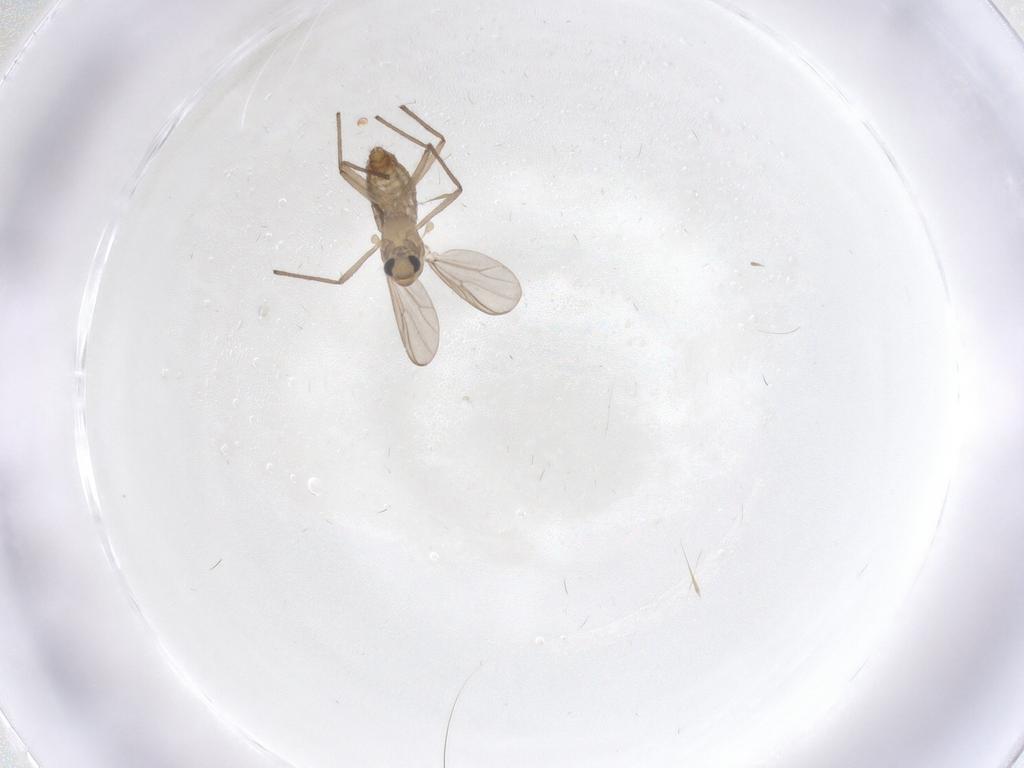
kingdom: Animalia
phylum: Arthropoda
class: Insecta
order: Diptera
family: Chironomidae
